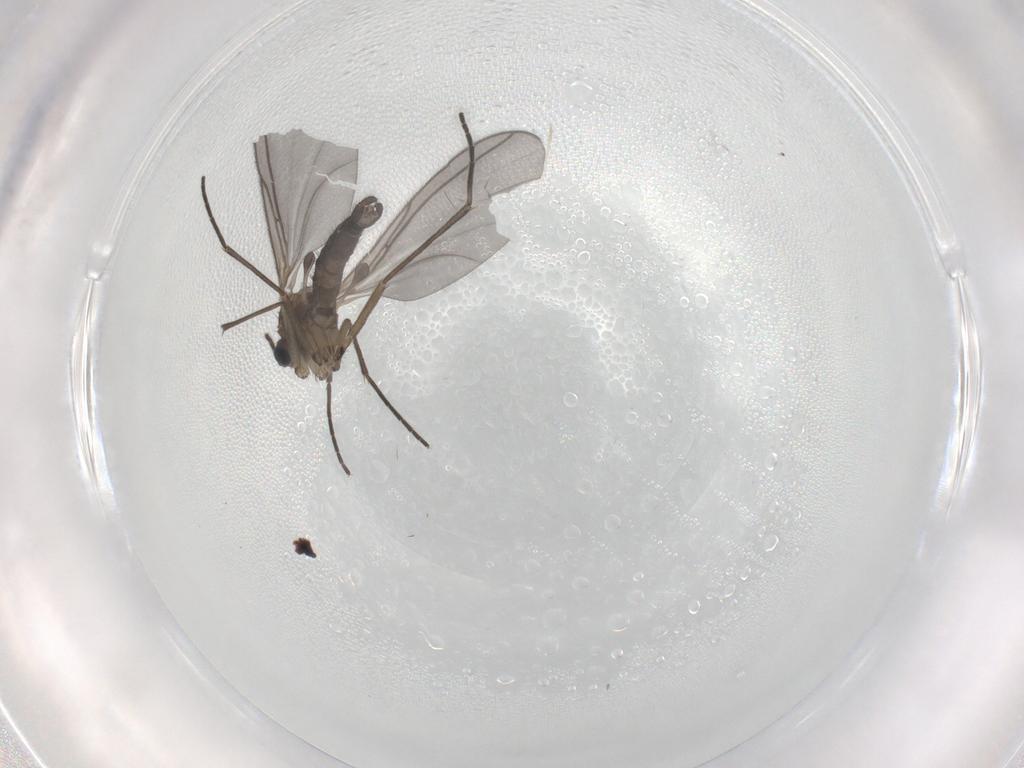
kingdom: Animalia
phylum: Arthropoda
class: Insecta
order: Diptera
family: Sciaridae
